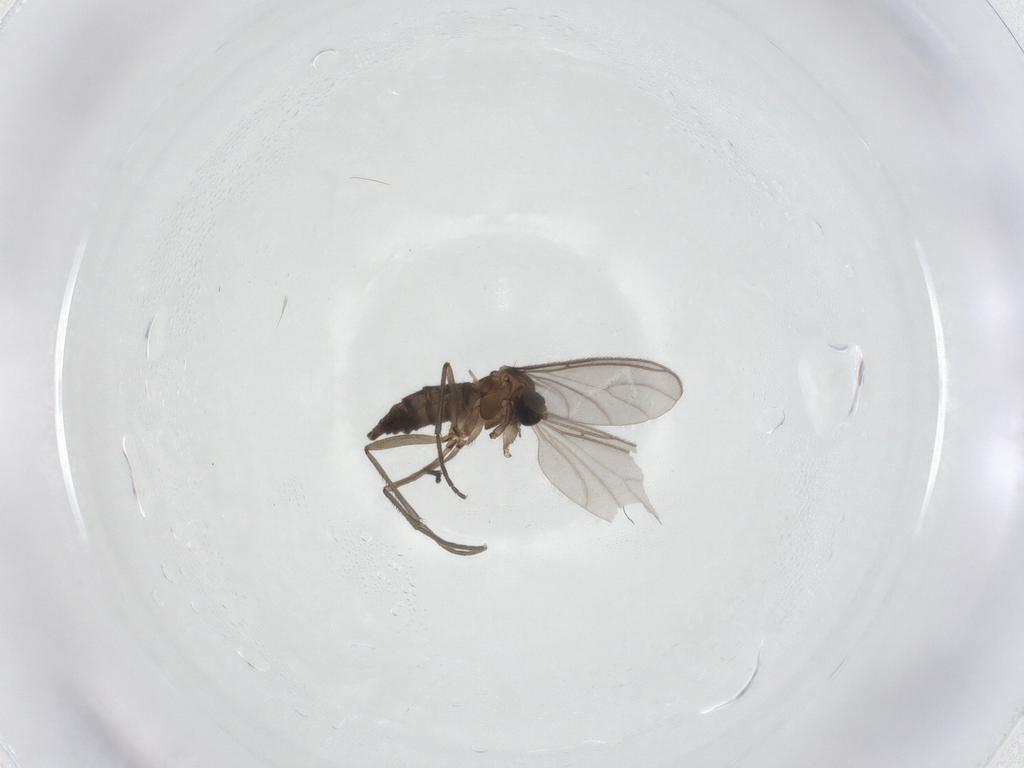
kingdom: Animalia
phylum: Arthropoda
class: Insecta
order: Diptera
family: Sciaridae
